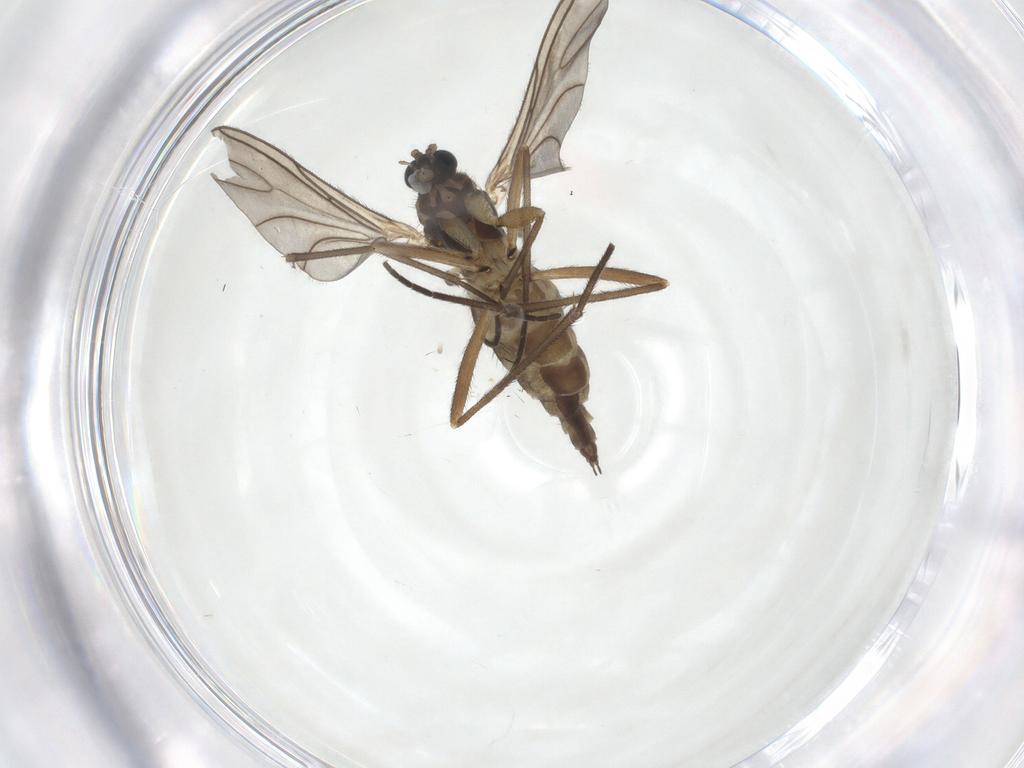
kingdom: Animalia
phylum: Arthropoda
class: Insecta
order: Diptera
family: Sciaridae
